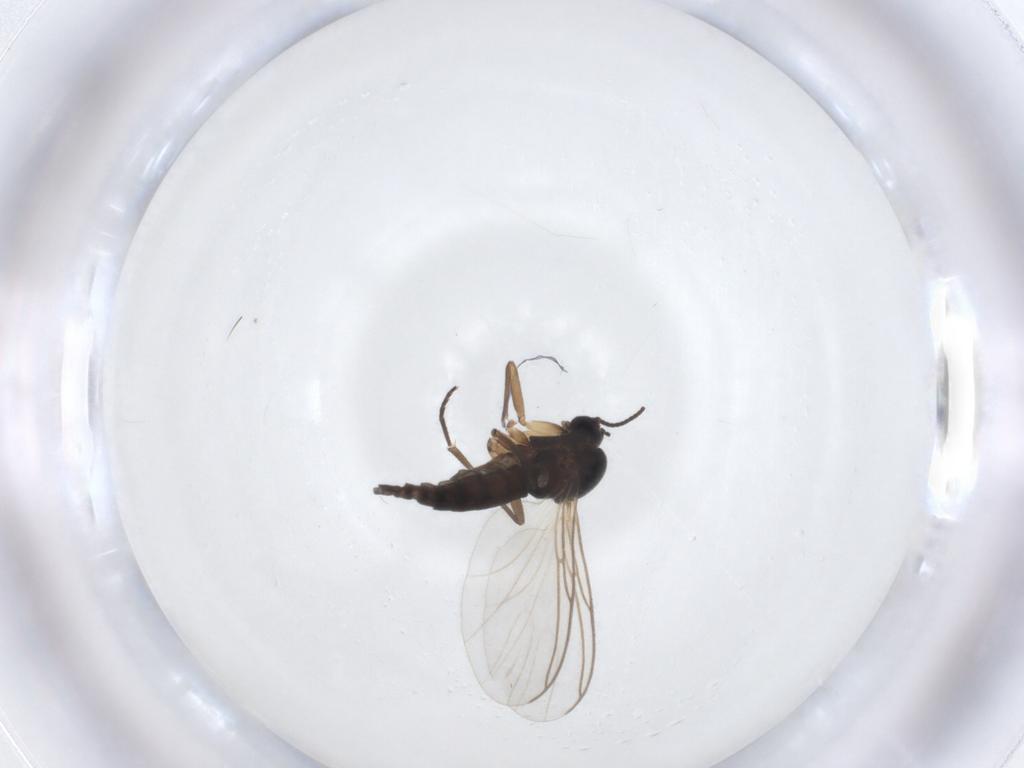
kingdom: Animalia
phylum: Arthropoda
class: Insecta
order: Diptera
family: Sciaridae
